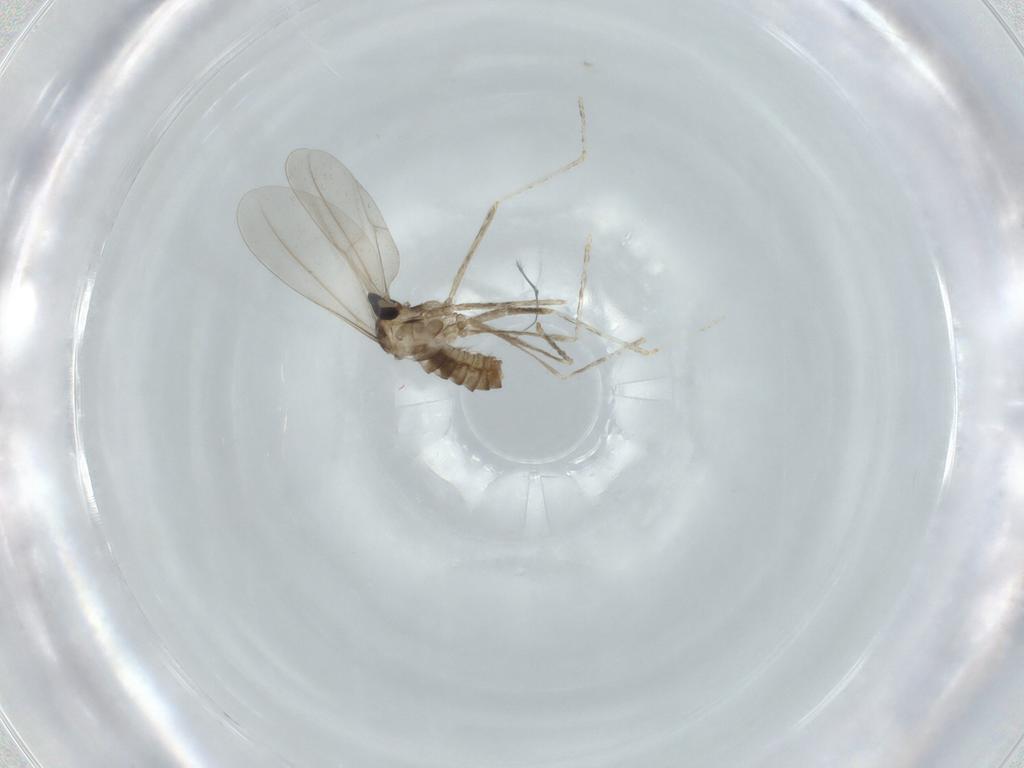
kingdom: Animalia
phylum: Arthropoda
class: Insecta
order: Diptera
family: Cecidomyiidae
